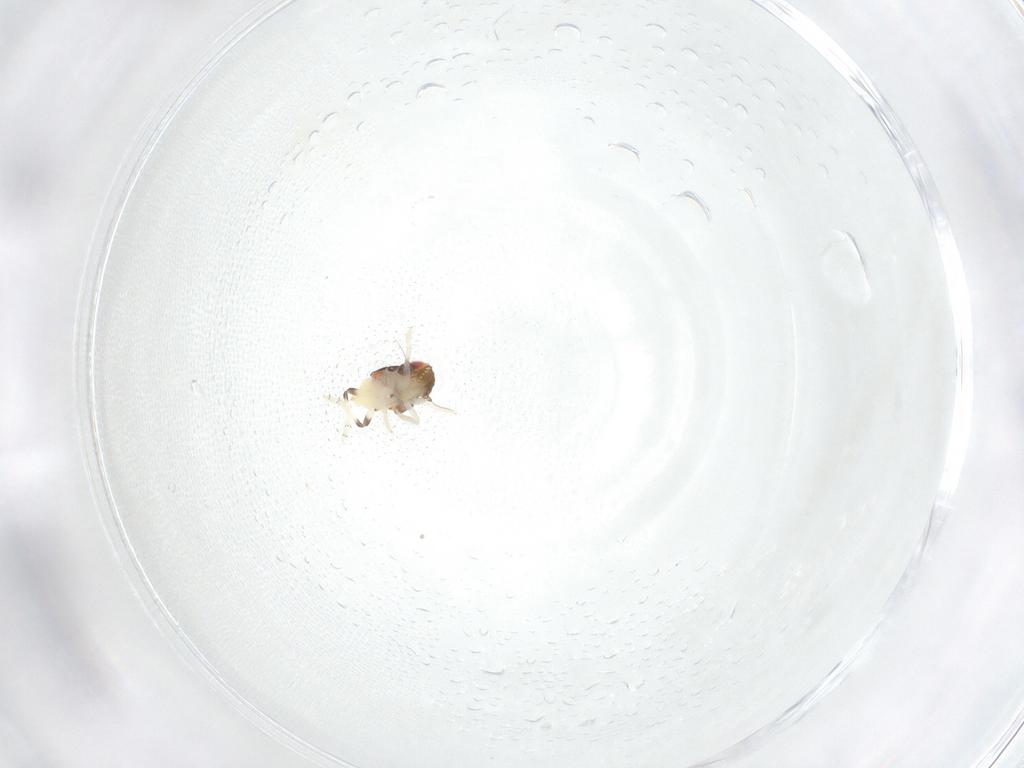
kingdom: Animalia
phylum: Arthropoda
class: Insecta
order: Hemiptera
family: Nogodinidae
